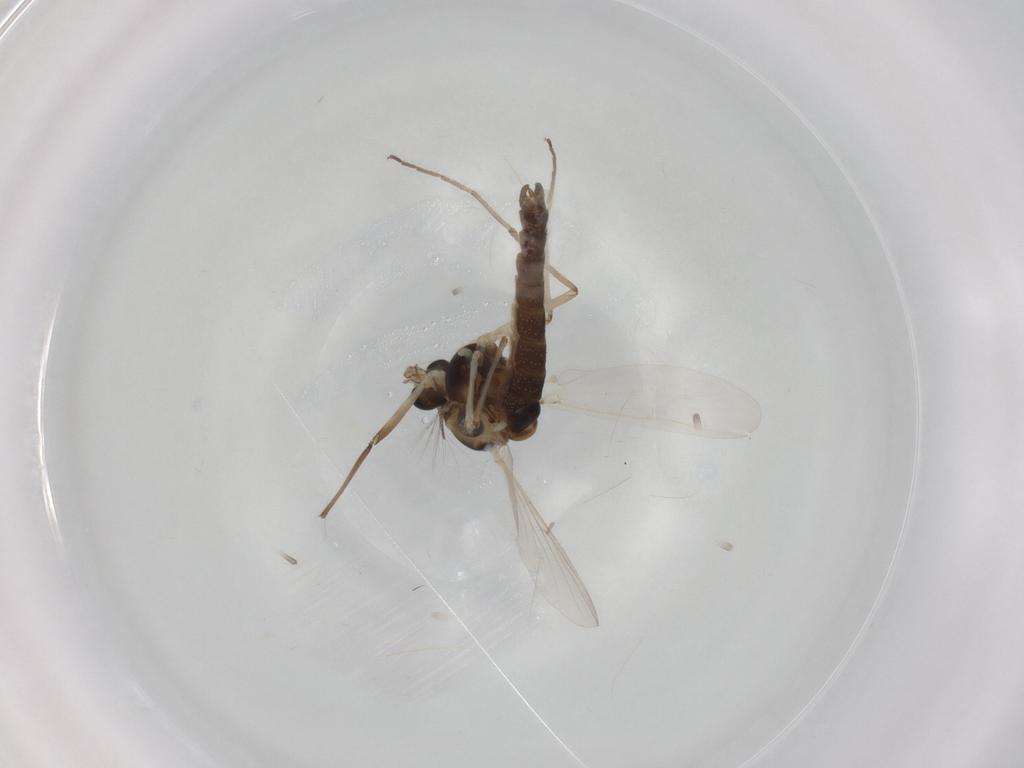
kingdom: Animalia
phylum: Arthropoda
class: Insecta
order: Diptera
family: Chironomidae
